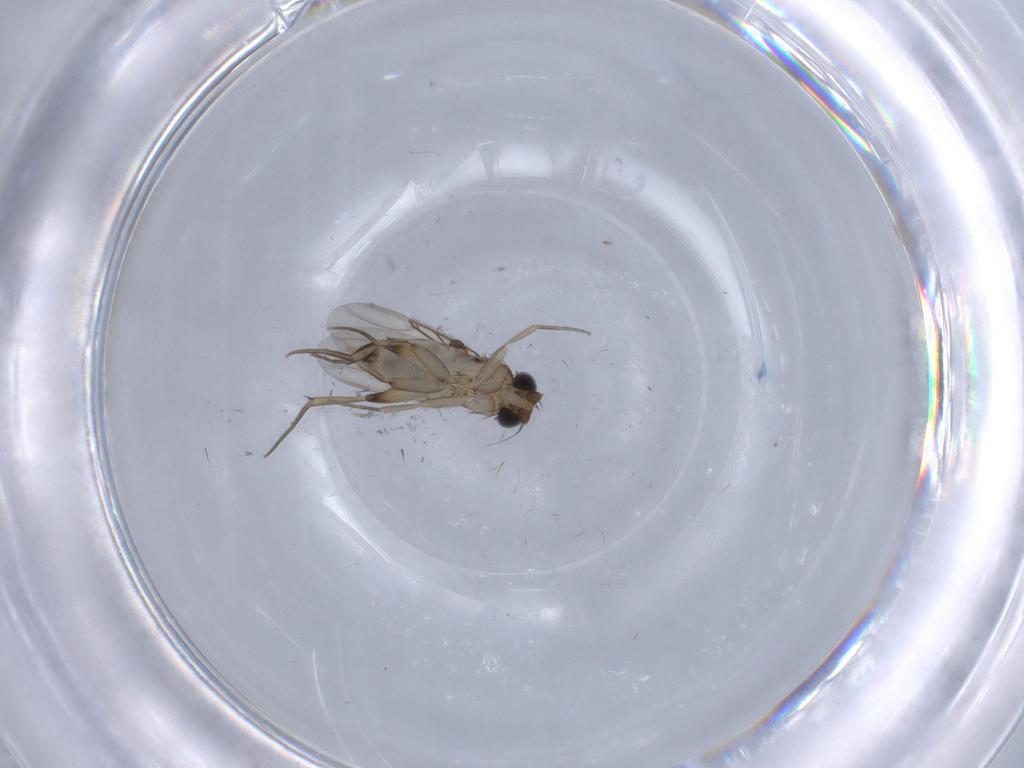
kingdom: Animalia
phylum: Arthropoda
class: Insecta
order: Diptera
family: Phoridae
